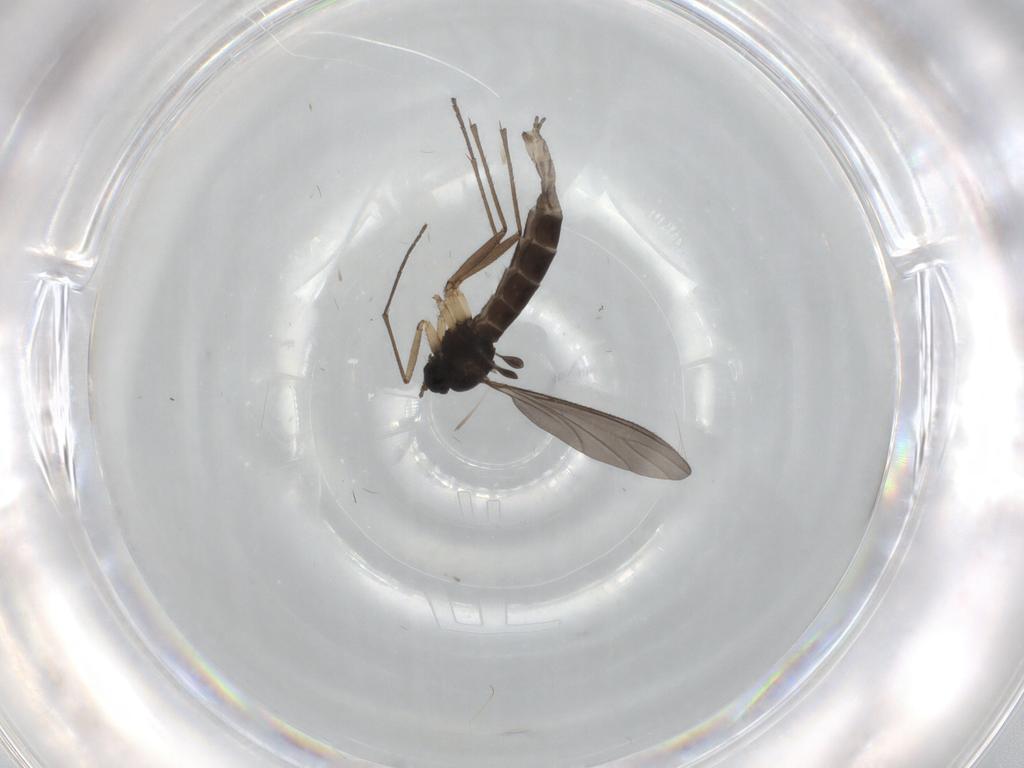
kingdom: Animalia
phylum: Arthropoda
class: Insecta
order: Diptera
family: Sciaridae
